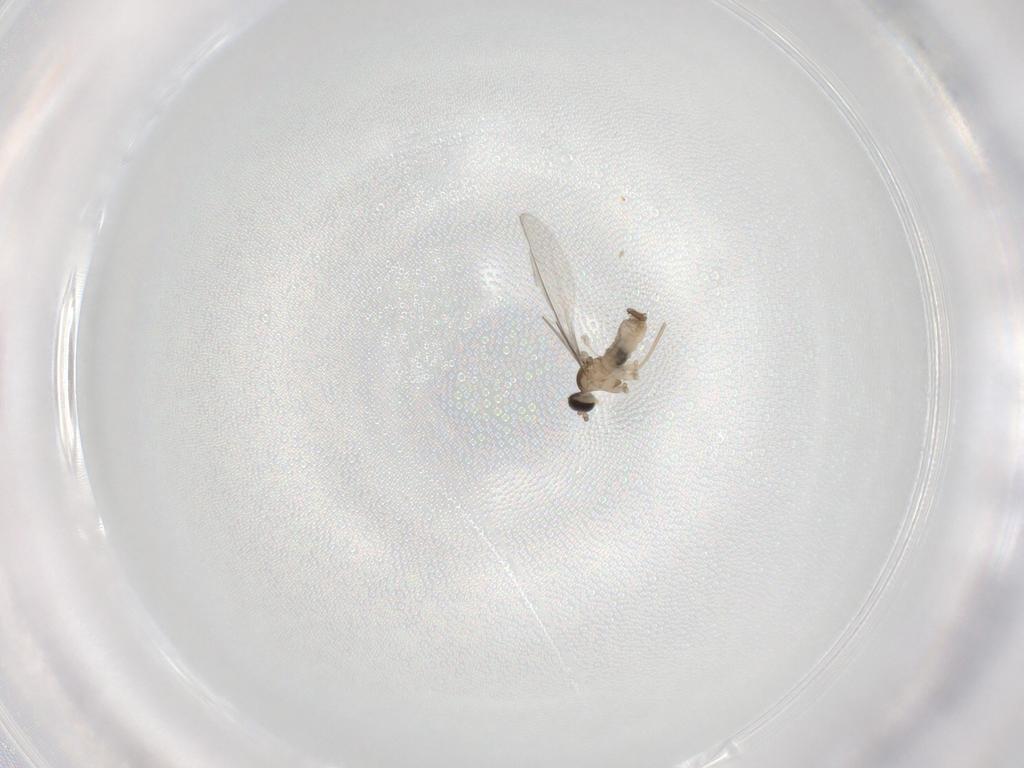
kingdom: Animalia
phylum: Arthropoda
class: Insecta
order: Diptera
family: Cecidomyiidae
